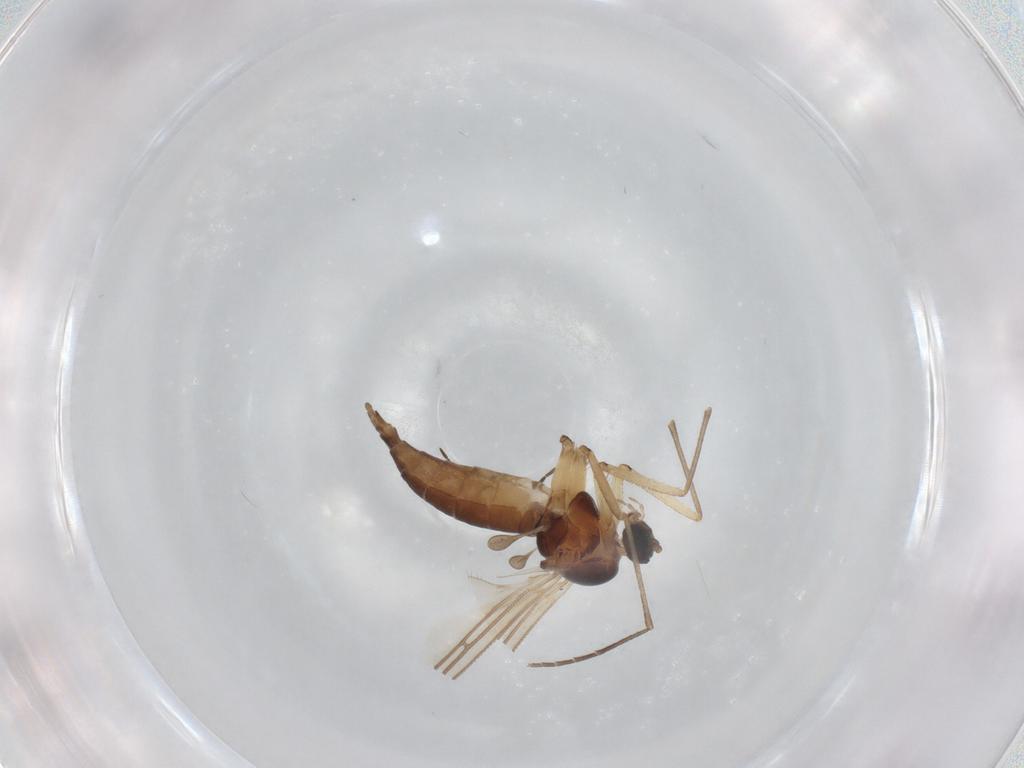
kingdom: Animalia
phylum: Arthropoda
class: Insecta
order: Diptera
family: Sciaridae
